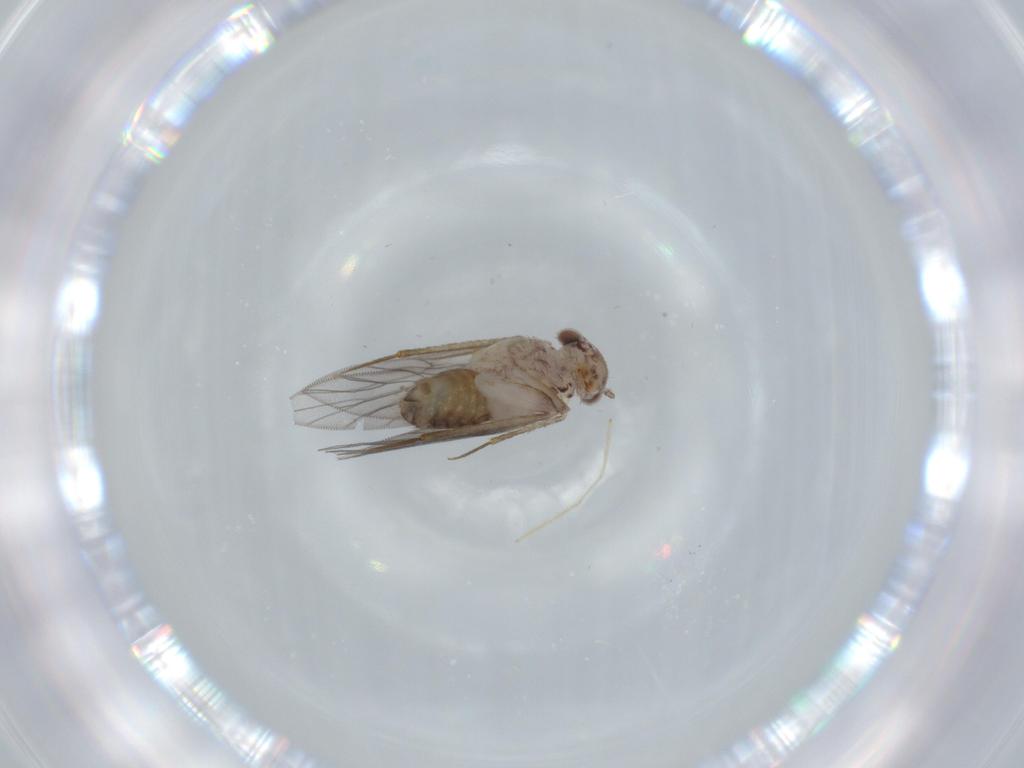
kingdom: Animalia
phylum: Arthropoda
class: Insecta
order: Psocodea
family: Lepidopsocidae
